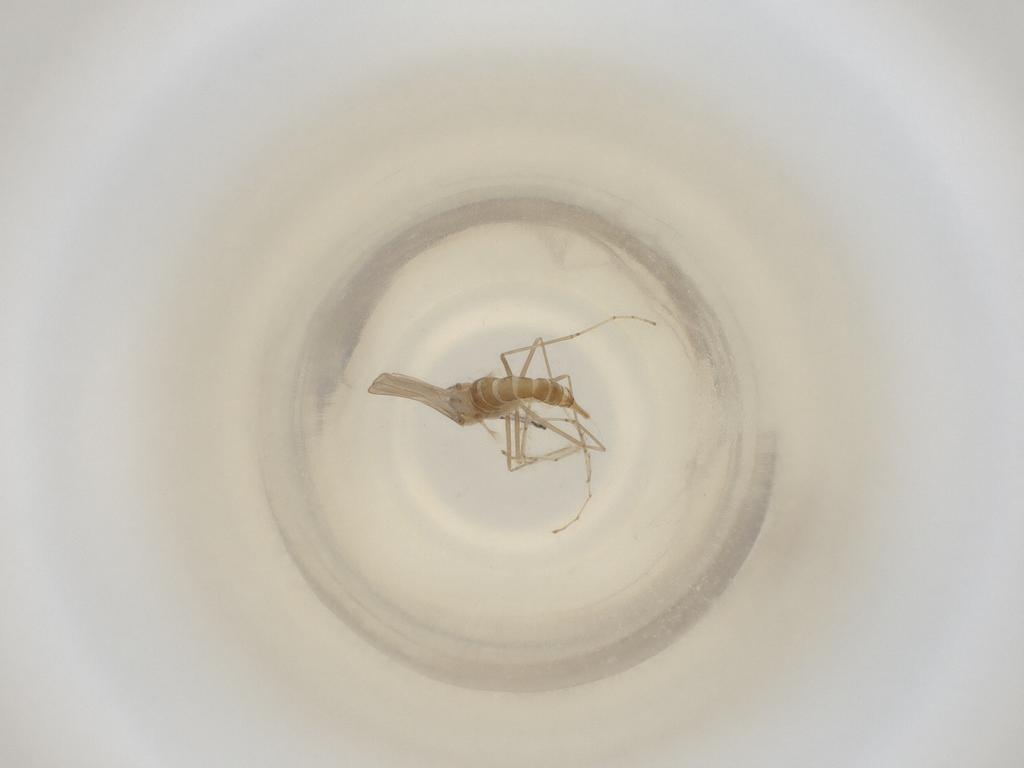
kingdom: Animalia
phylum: Arthropoda
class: Insecta
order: Diptera
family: Cecidomyiidae
